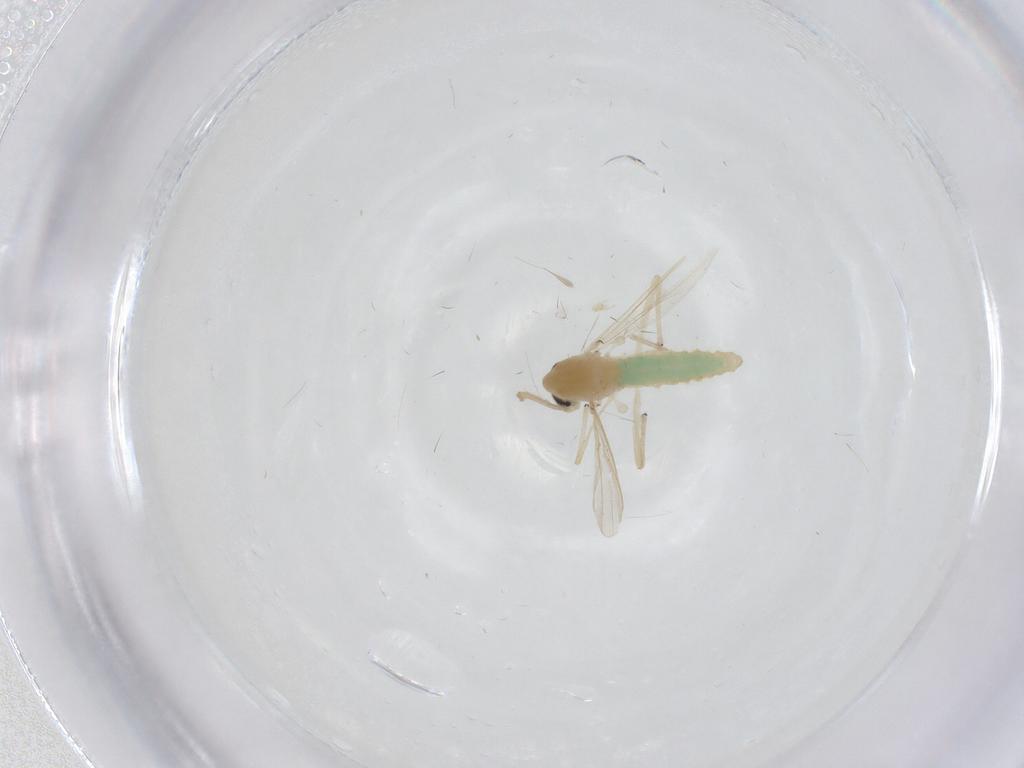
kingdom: Animalia
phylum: Arthropoda
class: Insecta
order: Diptera
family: Chironomidae
